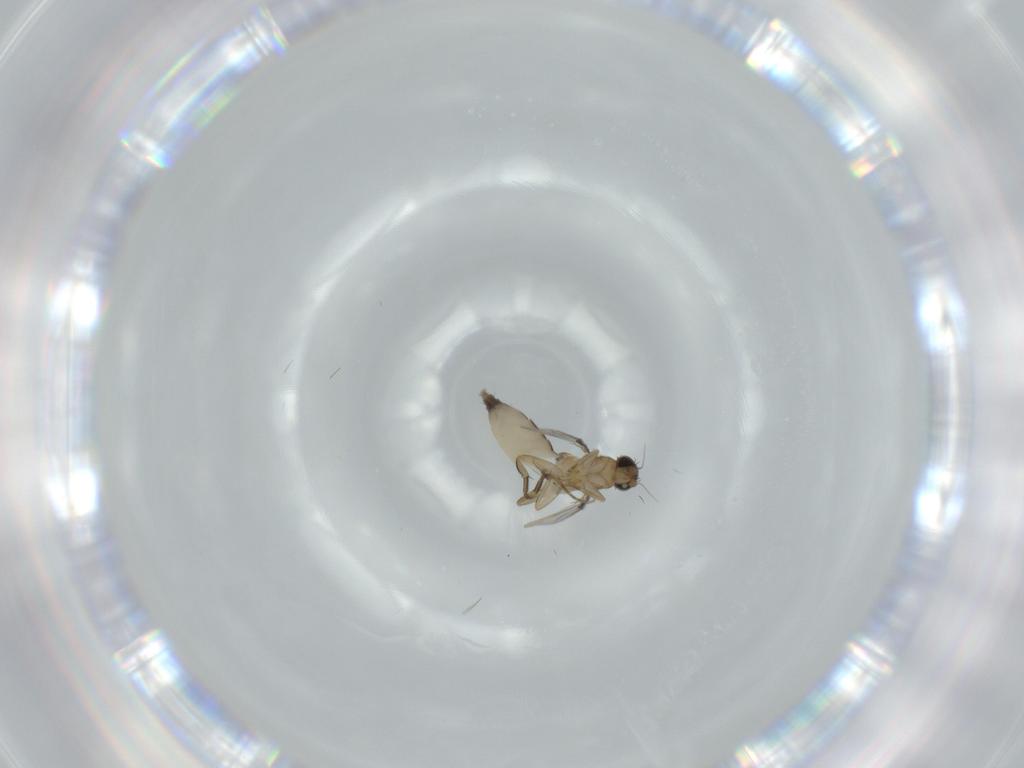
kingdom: Animalia
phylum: Arthropoda
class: Insecta
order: Diptera
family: Phoridae
